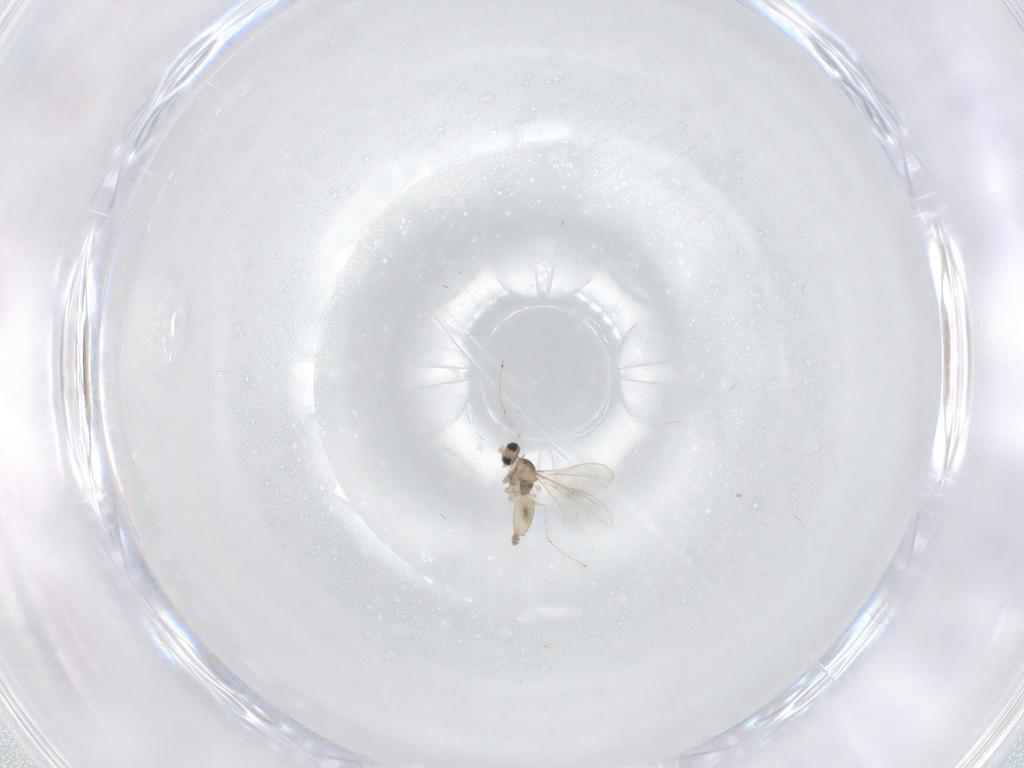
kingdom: Animalia
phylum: Arthropoda
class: Insecta
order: Diptera
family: Cecidomyiidae
